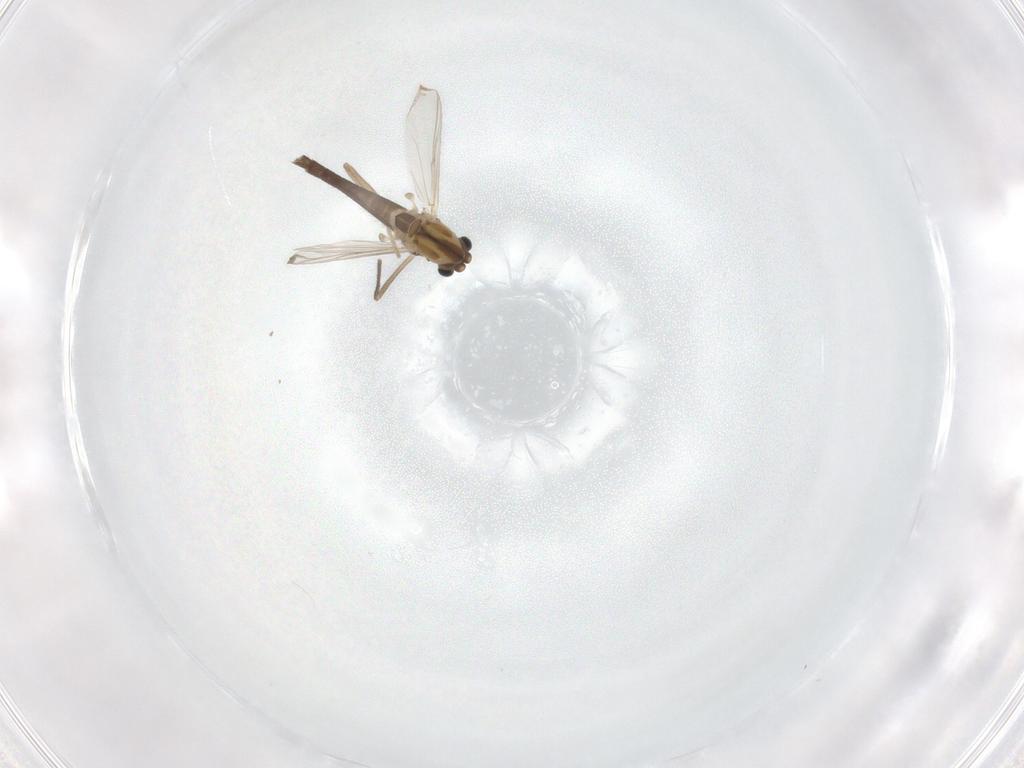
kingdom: Animalia
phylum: Arthropoda
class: Insecta
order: Diptera
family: Chironomidae
